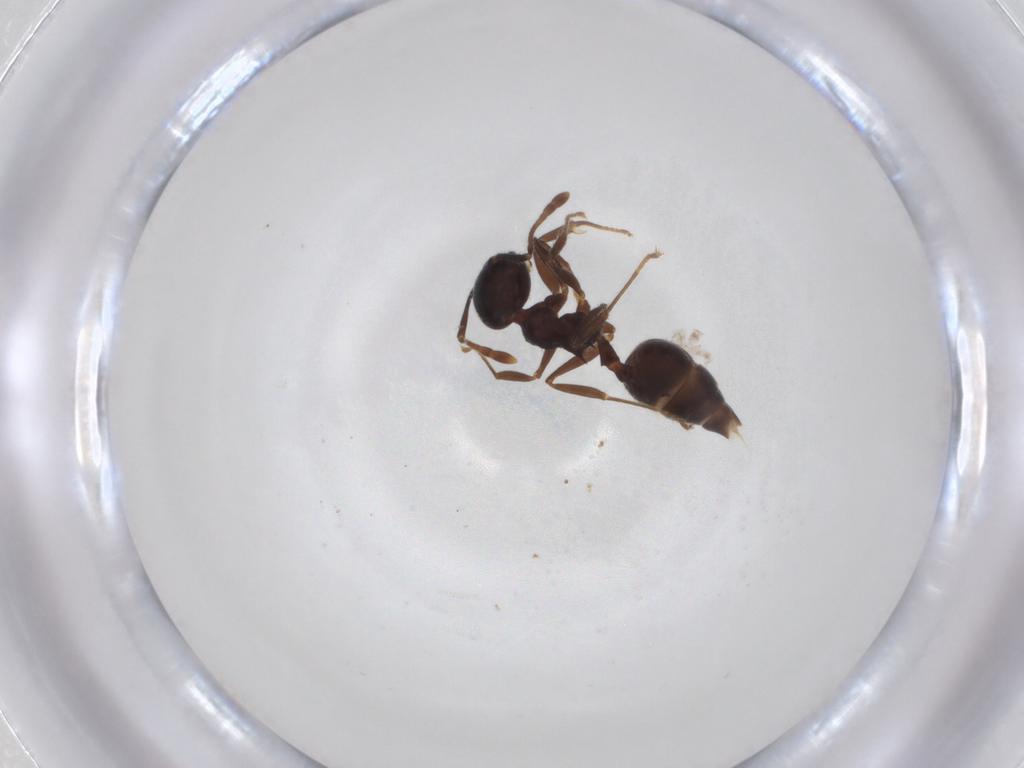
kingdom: Animalia
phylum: Arthropoda
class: Insecta
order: Hymenoptera
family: Formicidae
